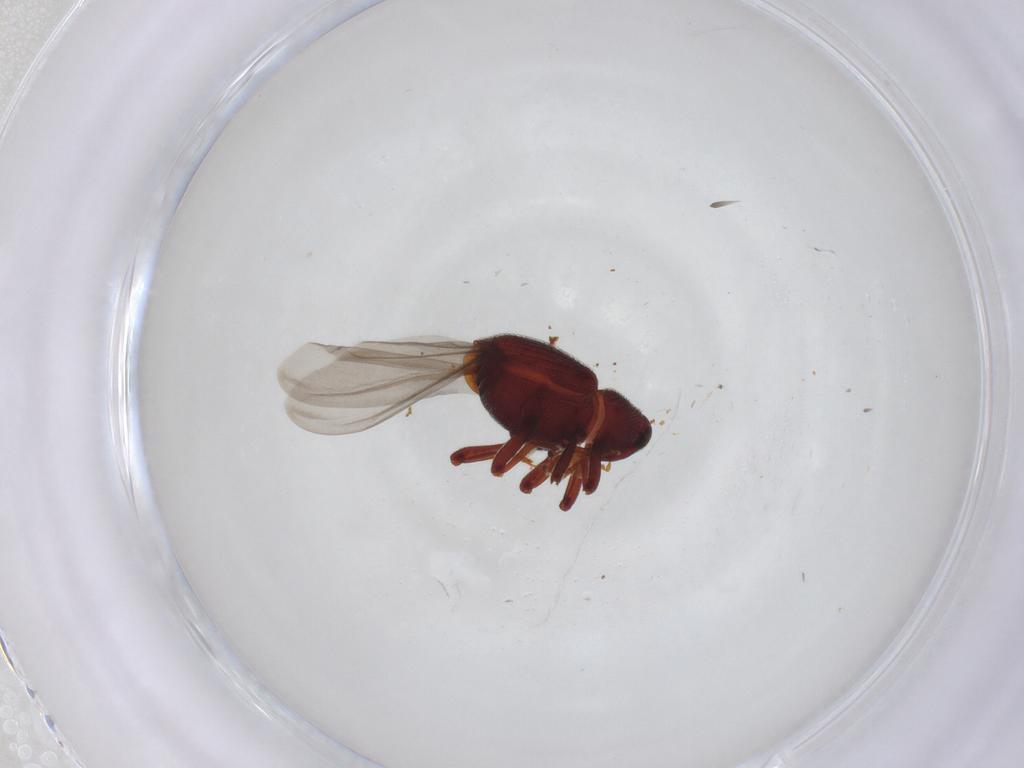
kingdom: Animalia
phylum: Arthropoda
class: Insecta
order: Coleoptera
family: Curculionidae
